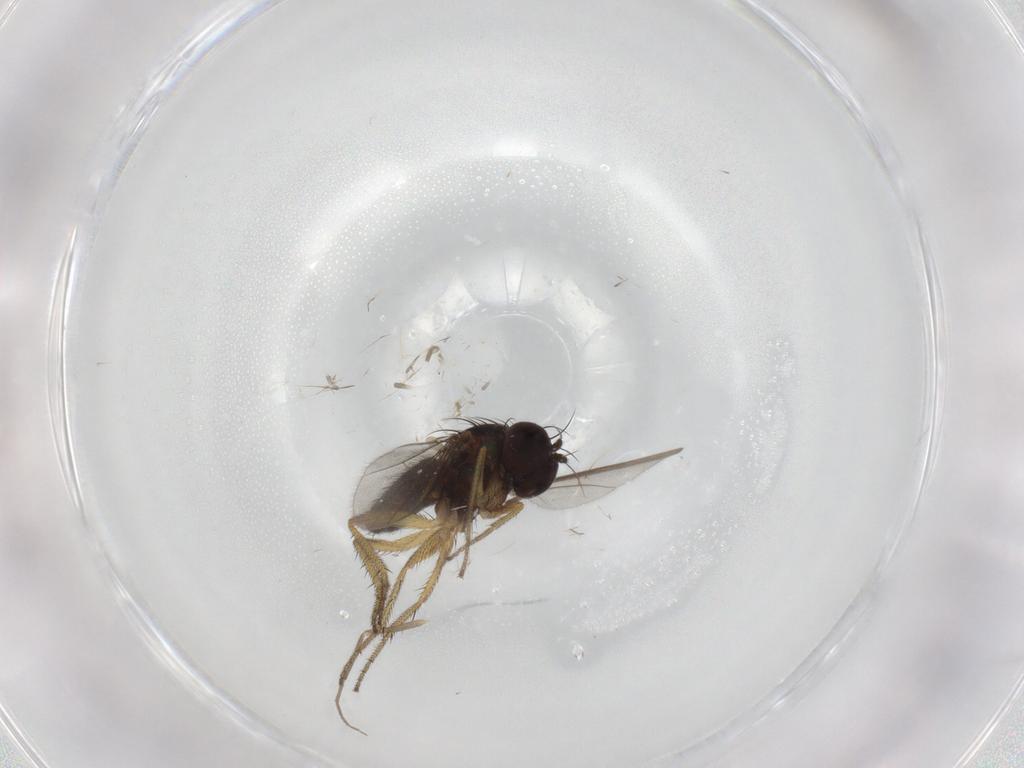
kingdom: Animalia
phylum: Arthropoda
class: Insecta
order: Diptera
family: Dolichopodidae
